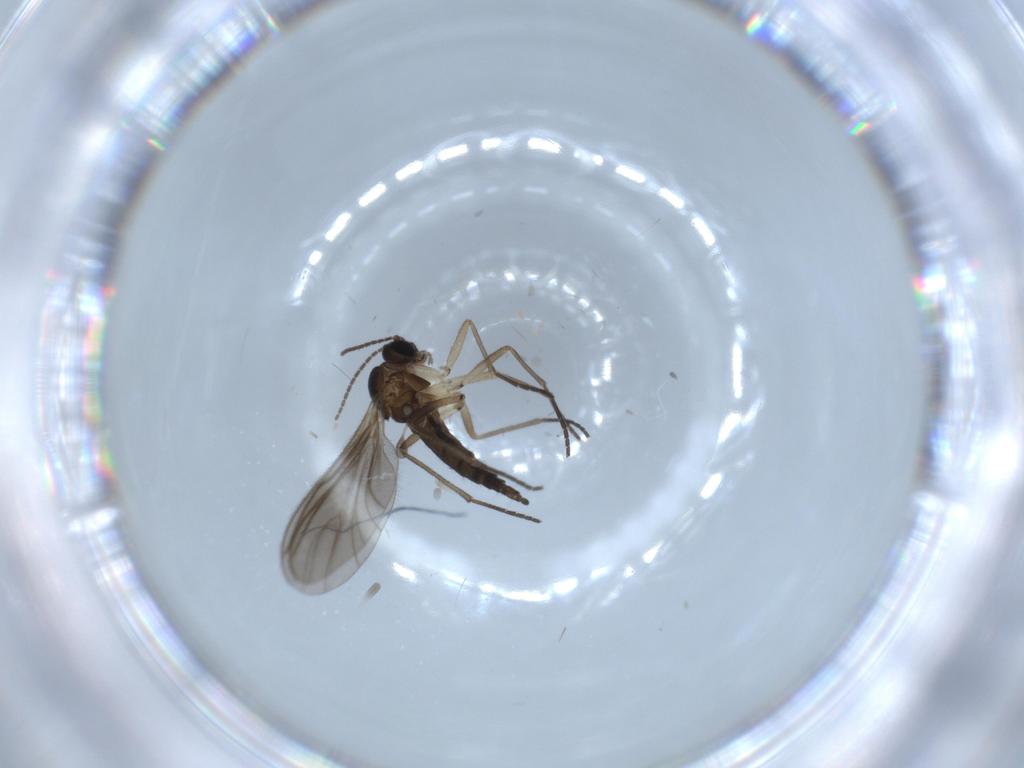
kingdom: Animalia
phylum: Arthropoda
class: Insecta
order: Diptera
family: Sciaridae
